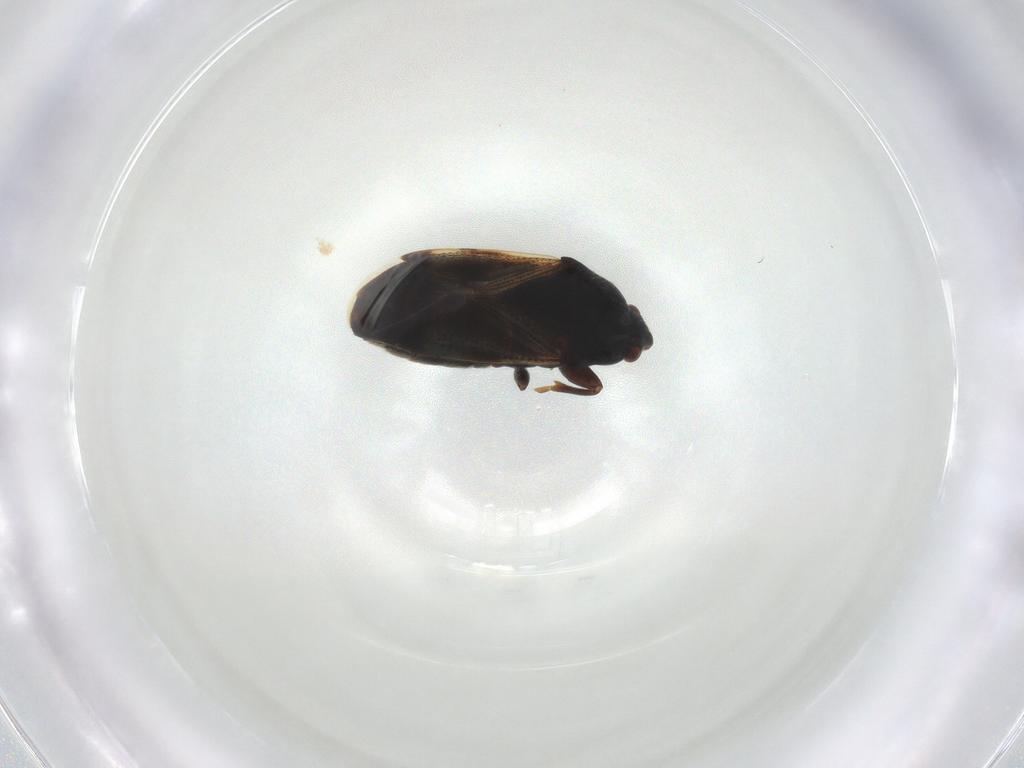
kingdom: Animalia
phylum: Arthropoda
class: Insecta
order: Hemiptera
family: Rhyparochromidae
